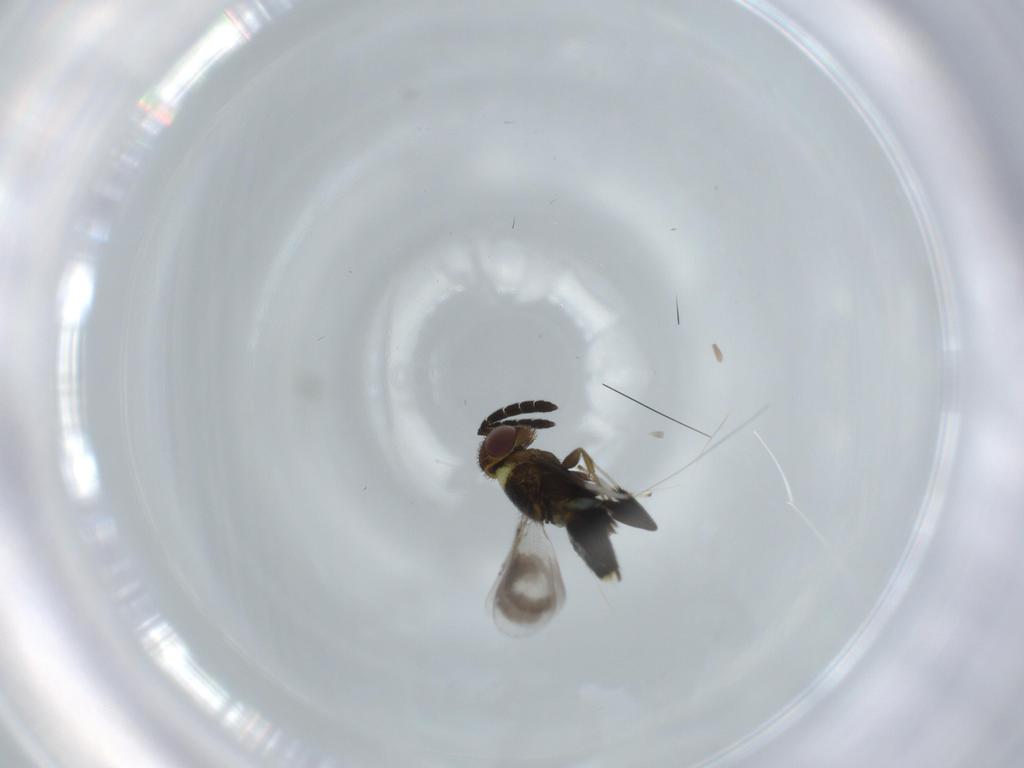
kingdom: Animalia
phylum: Arthropoda
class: Insecta
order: Hymenoptera
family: Aphelinidae
